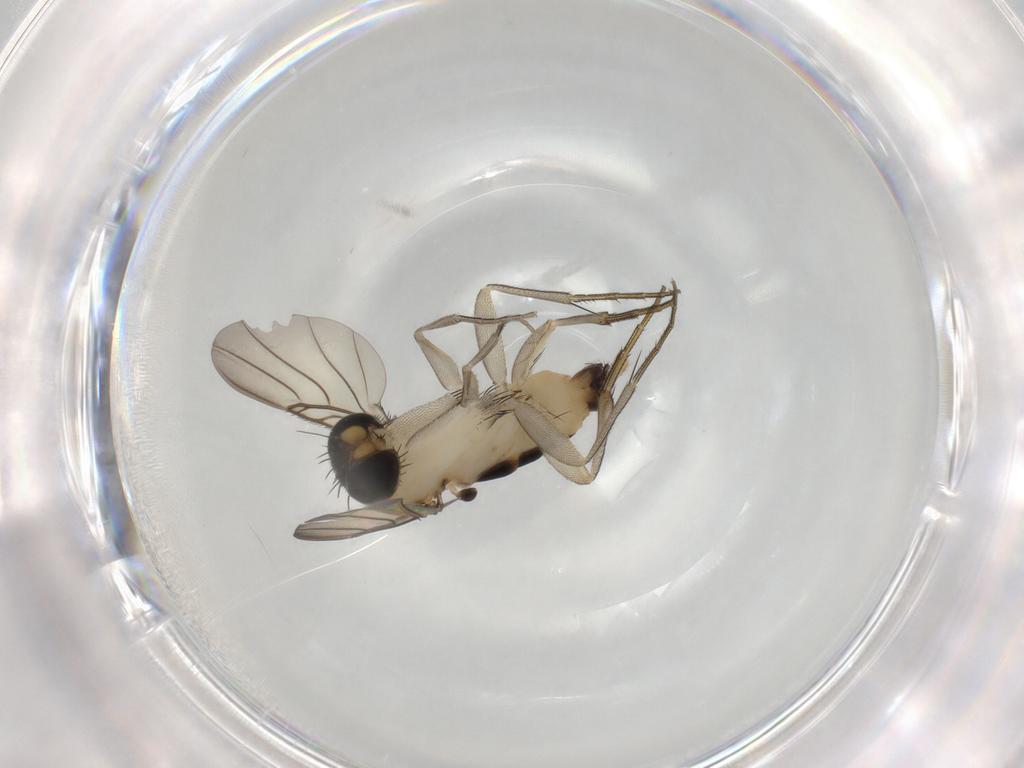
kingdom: Animalia
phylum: Arthropoda
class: Insecta
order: Diptera
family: Phoridae
